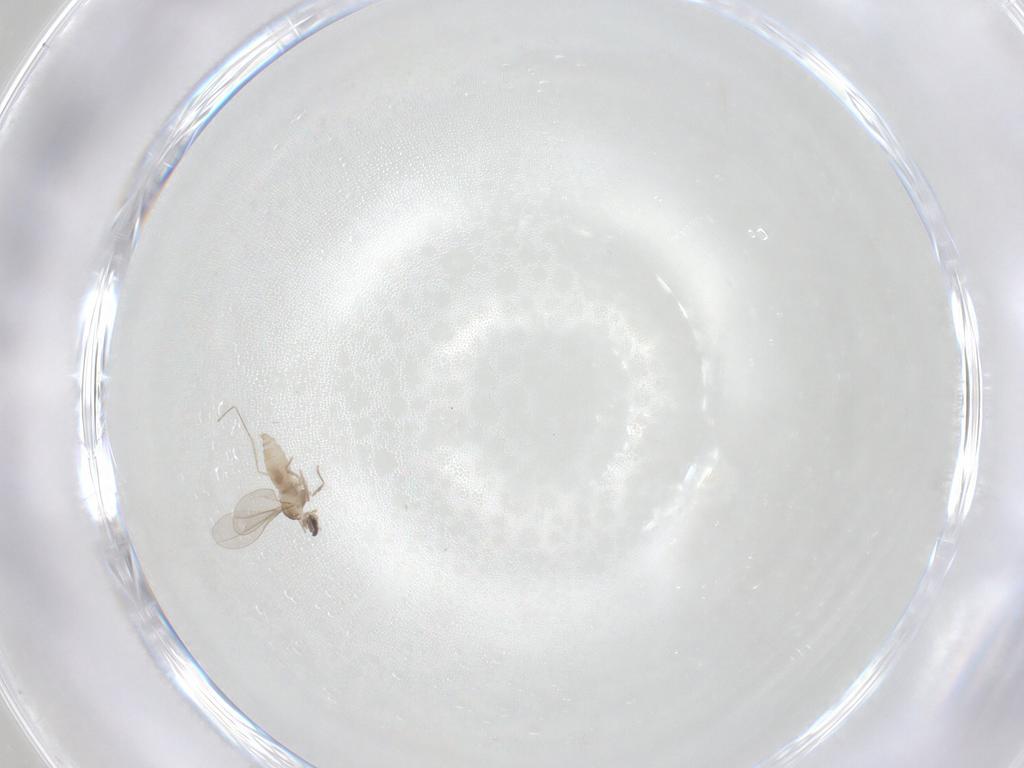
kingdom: Animalia
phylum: Arthropoda
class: Insecta
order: Diptera
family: Cecidomyiidae
